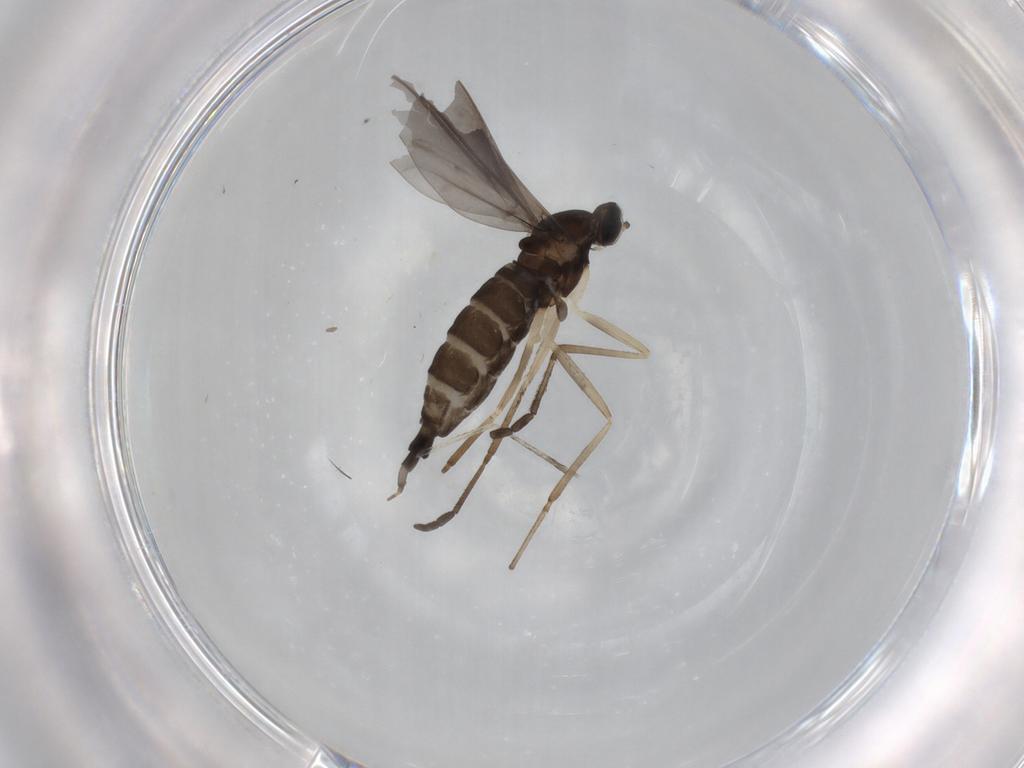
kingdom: Animalia
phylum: Arthropoda
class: Insecta
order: Diptera
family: Cecidomyiidae
